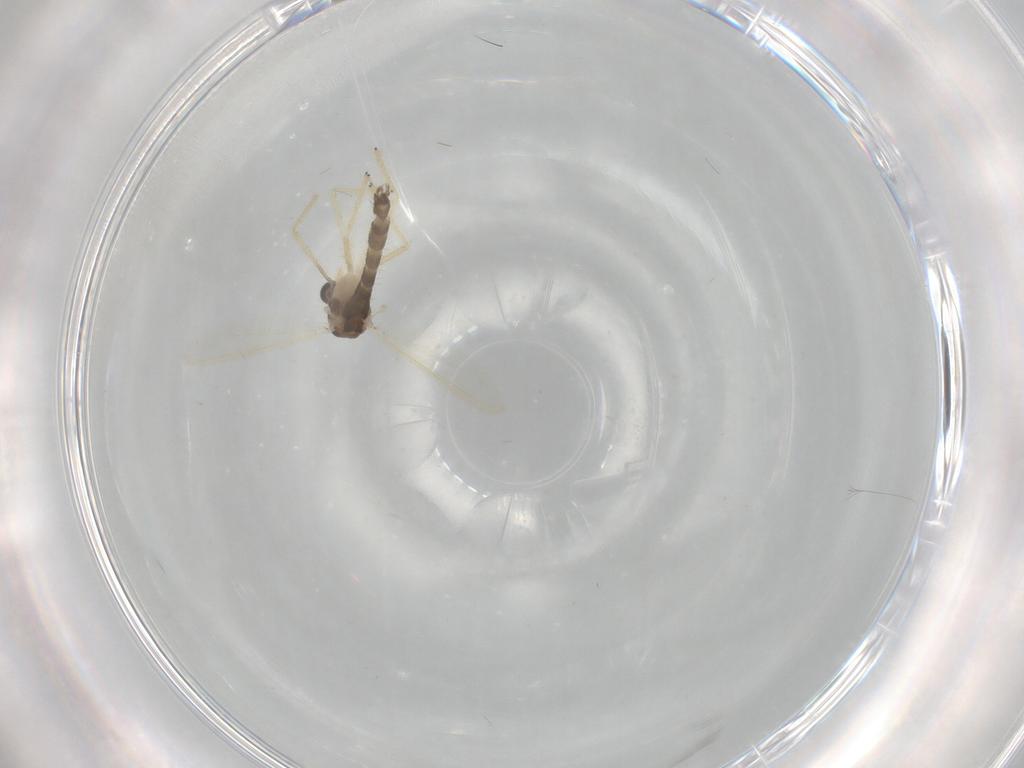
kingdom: Animalia
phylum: Arthropoda
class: Insecta
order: Diptera
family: Chironomidae
